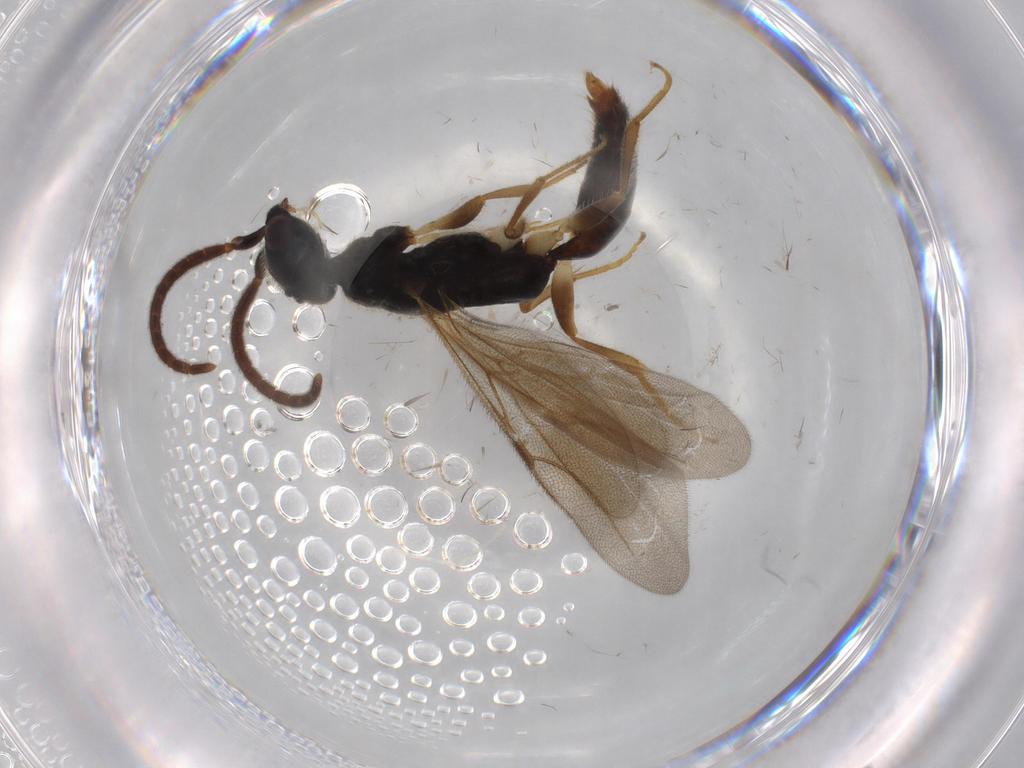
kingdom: Animalia
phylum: Arthropoda
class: Insecta
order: Hymenoptera
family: Bethylidae
